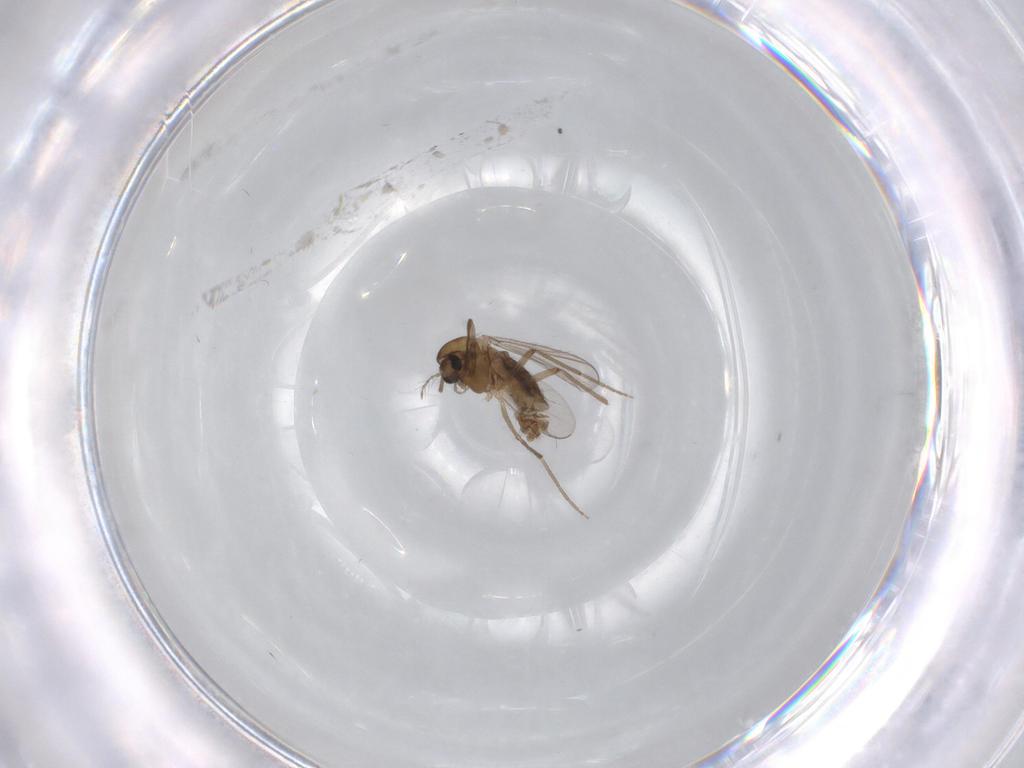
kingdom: Animalia
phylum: Arthropoda
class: Insecta
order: Diptera
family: Chironomidae
